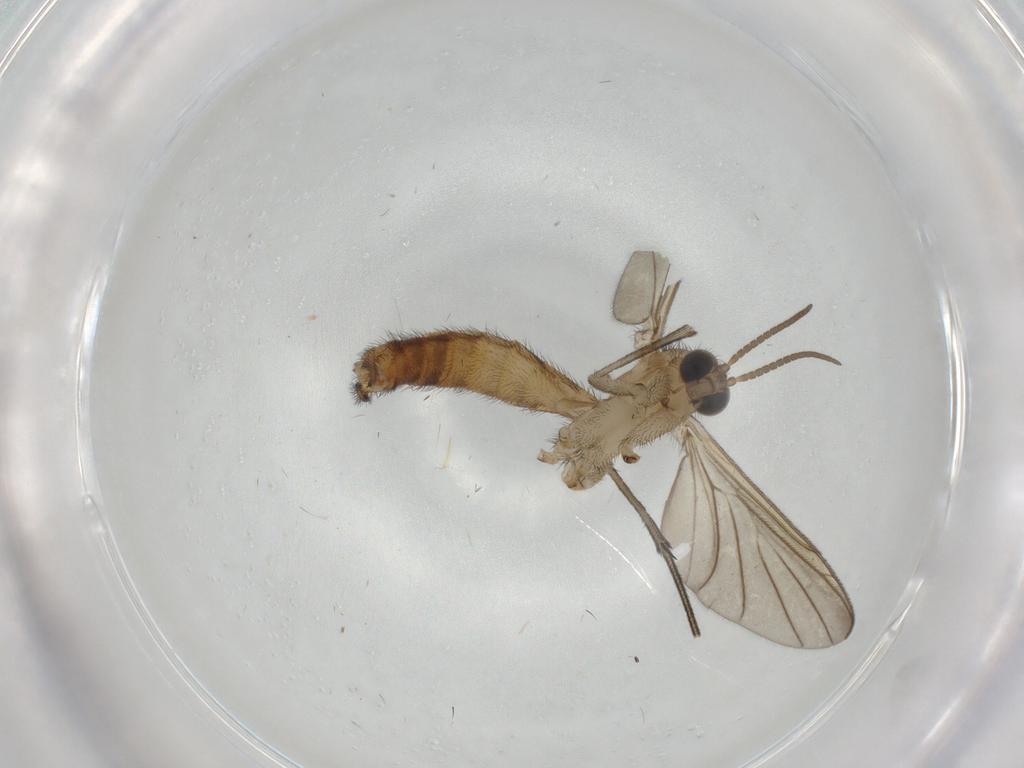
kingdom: Animalia
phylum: Arthropoda
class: Insecta
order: Diptera
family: Keroplatidae
